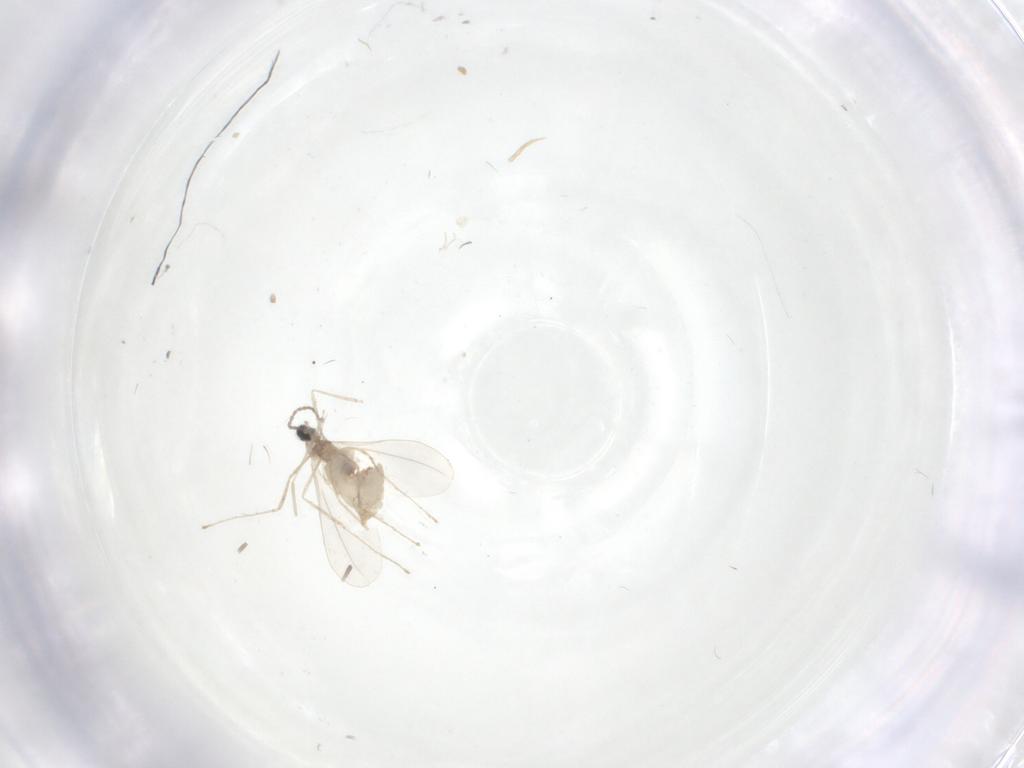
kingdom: Animalia
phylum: Arthropoda
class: Insecta
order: Diptera
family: Cecidomyiidae
